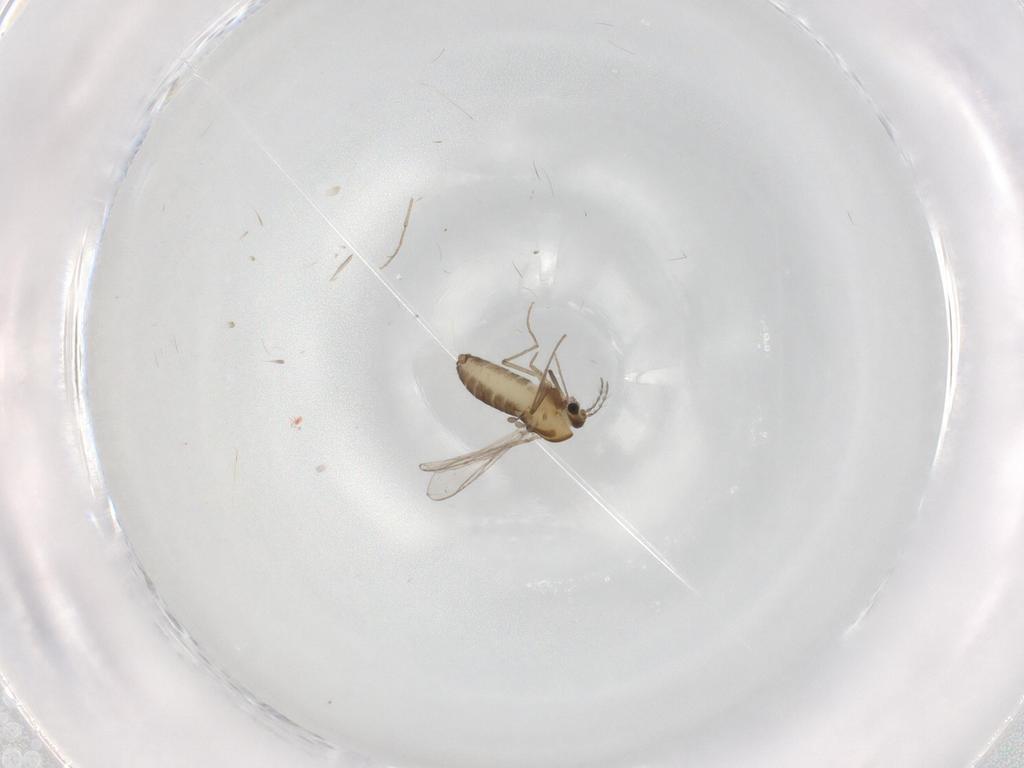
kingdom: Animalia
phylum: Arthropoda
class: Insecta
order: Diptera
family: Chironomidae
